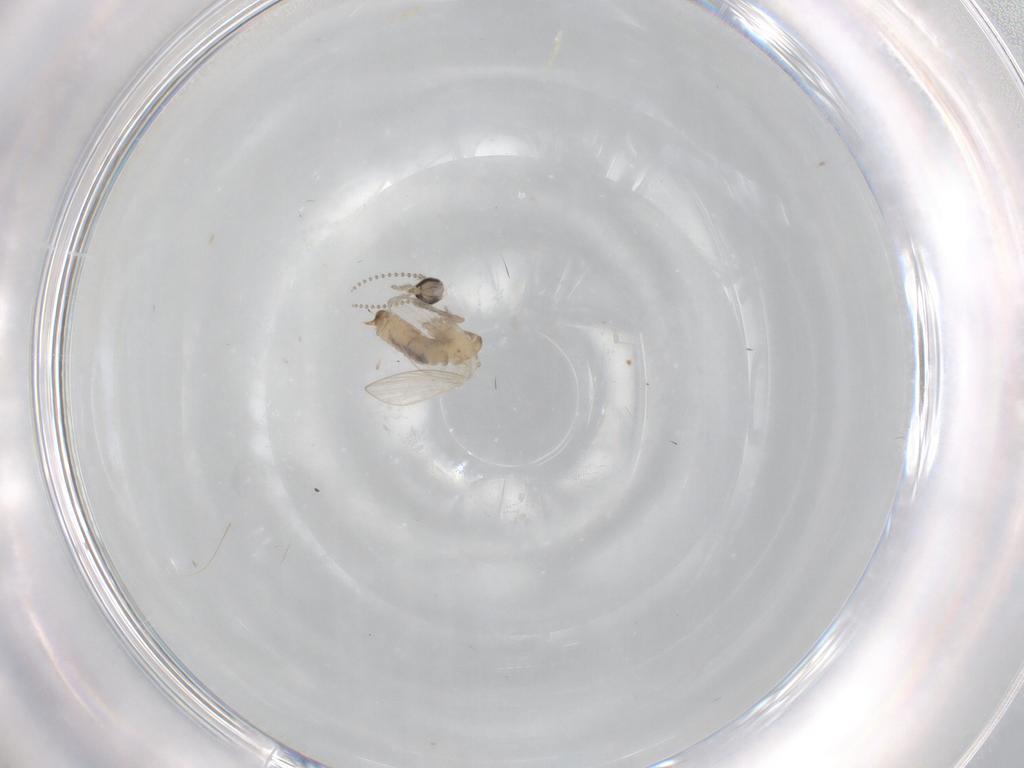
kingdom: Animalia
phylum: Arthropoda
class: Insecta
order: Diptera
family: Psychodidae
